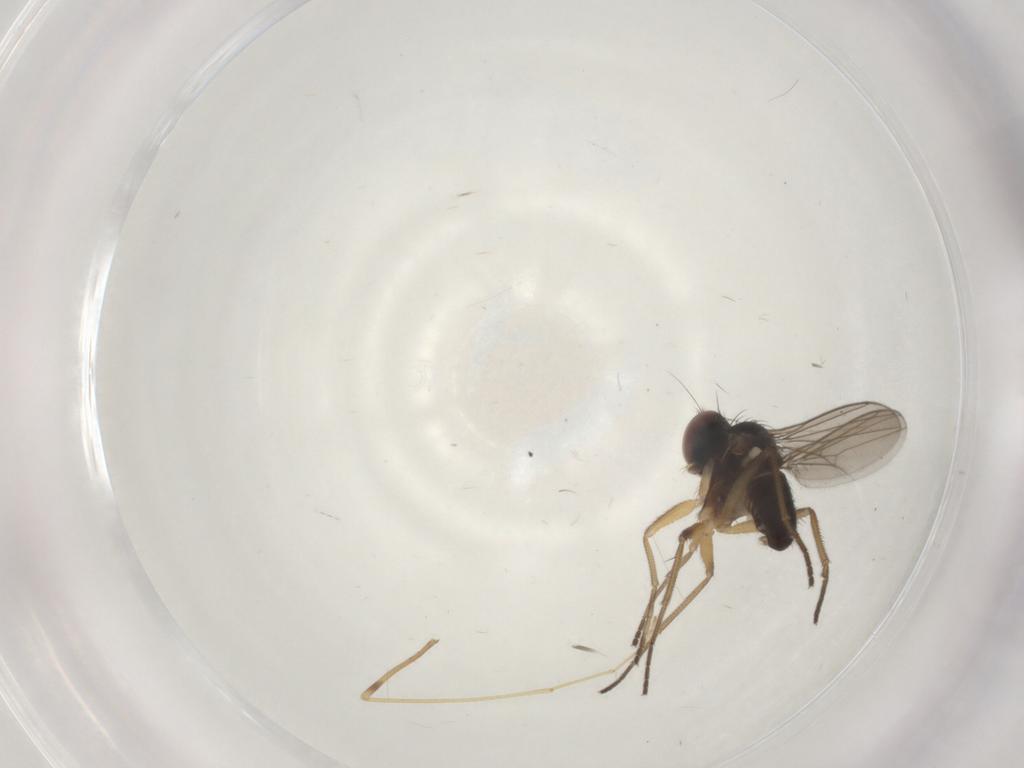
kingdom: Animalia
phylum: Arthropoda
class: Insecta
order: Diptera
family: Dolichopodidae
